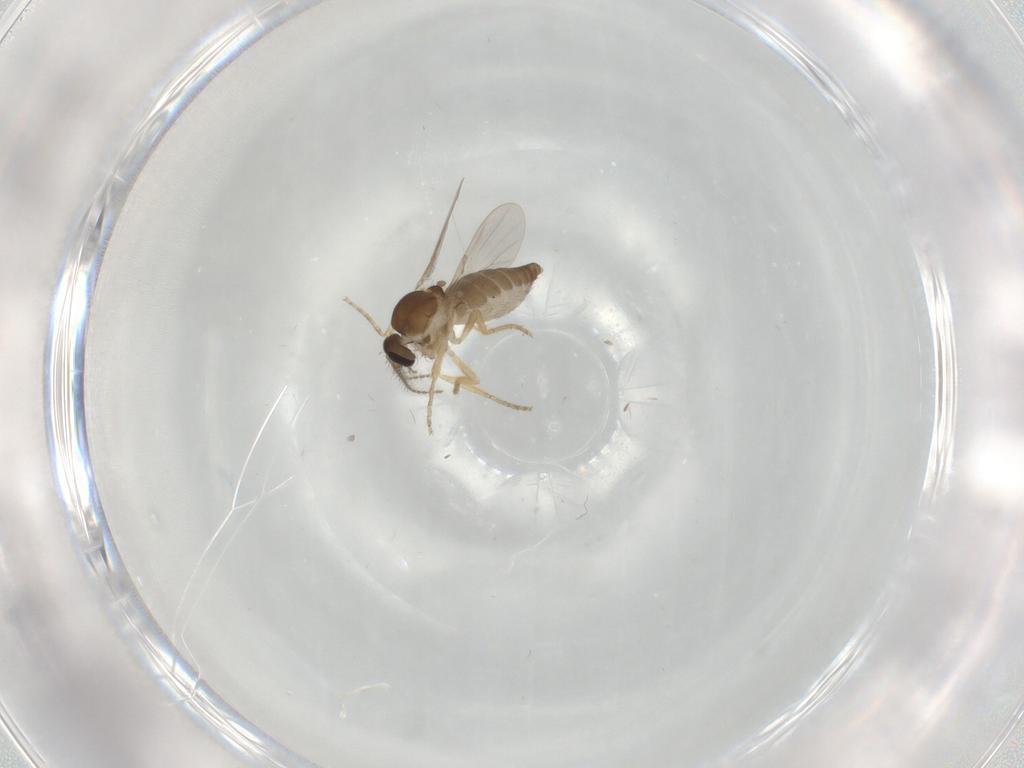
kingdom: Animalia
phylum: Arthropoda
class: Insecta
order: Diptera
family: Ceratopogonidae
